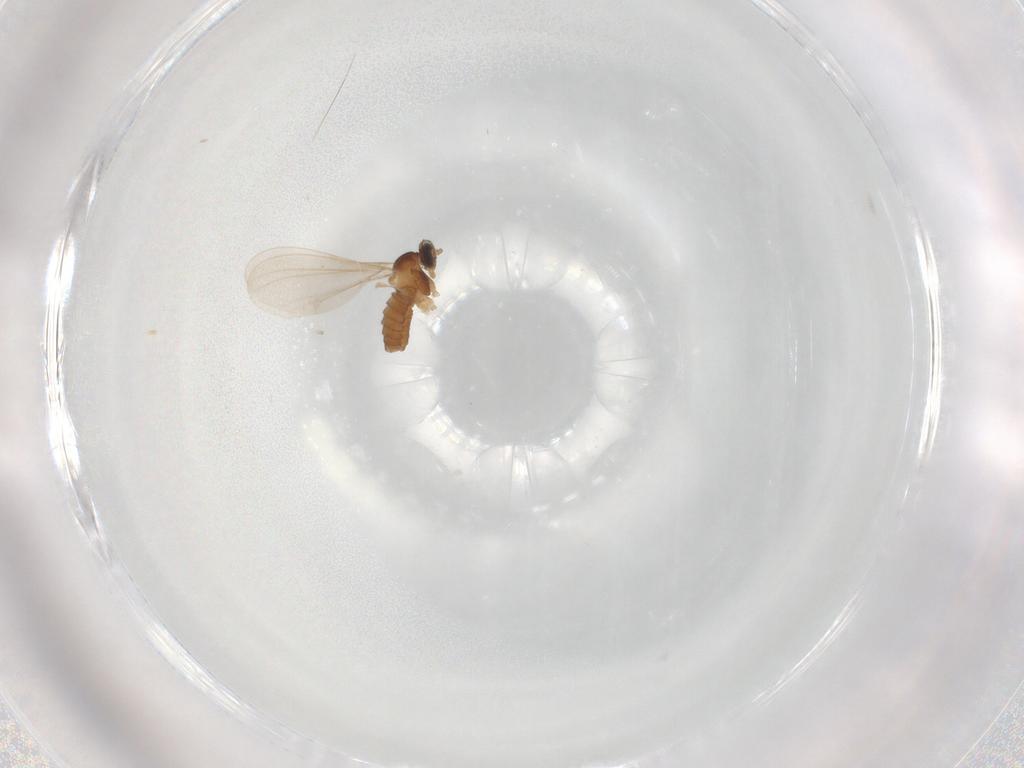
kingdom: Animalia
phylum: Arthropoda
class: Insecta
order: Diptera
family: Cecidomyiidae
